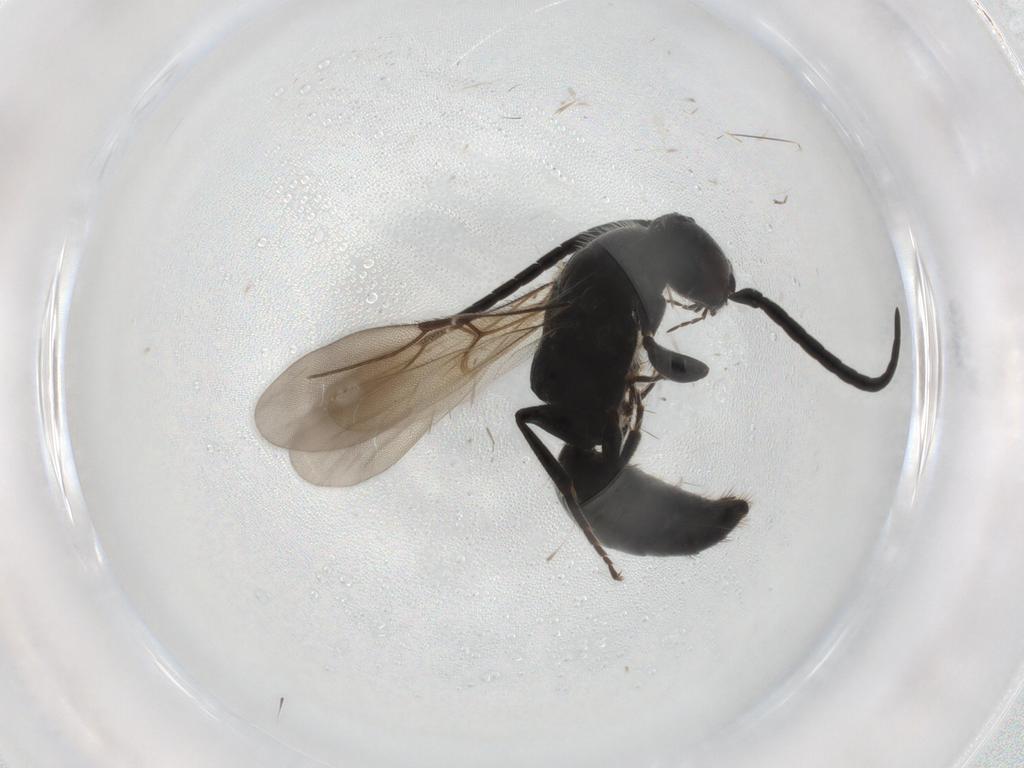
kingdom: Animalia
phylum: Arthropoda
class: Insecta
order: Hymenoptera
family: Bethylidae
